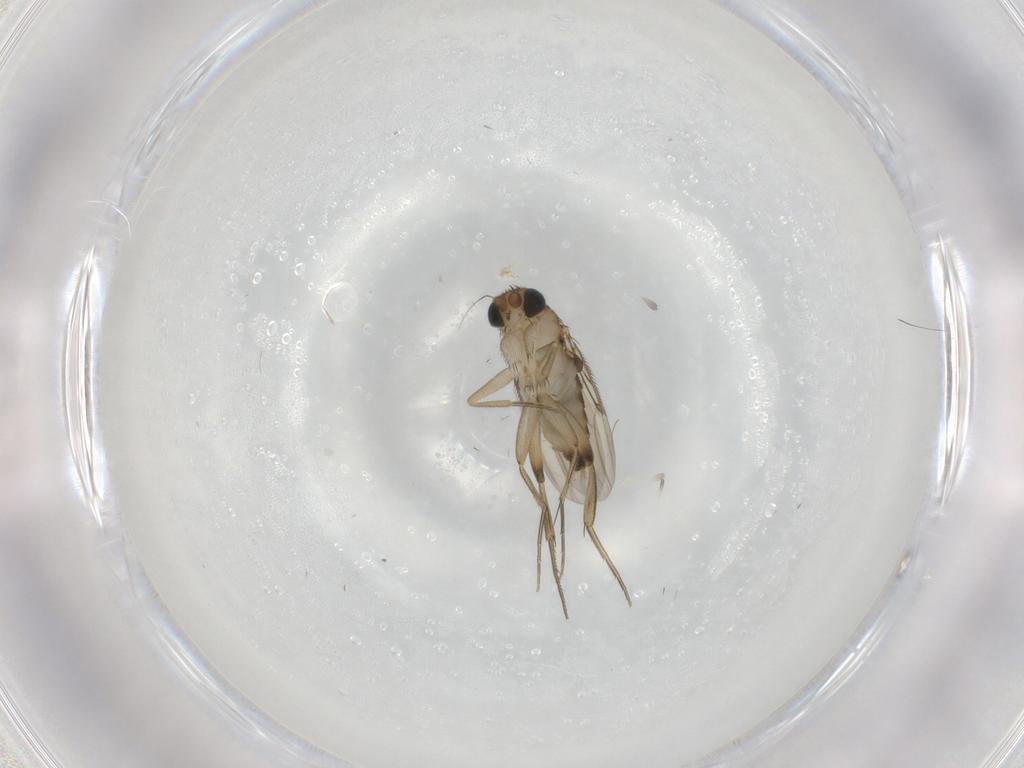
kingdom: Animalia
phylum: Arthropoda
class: Insecta
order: Diptera
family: Phoridae
